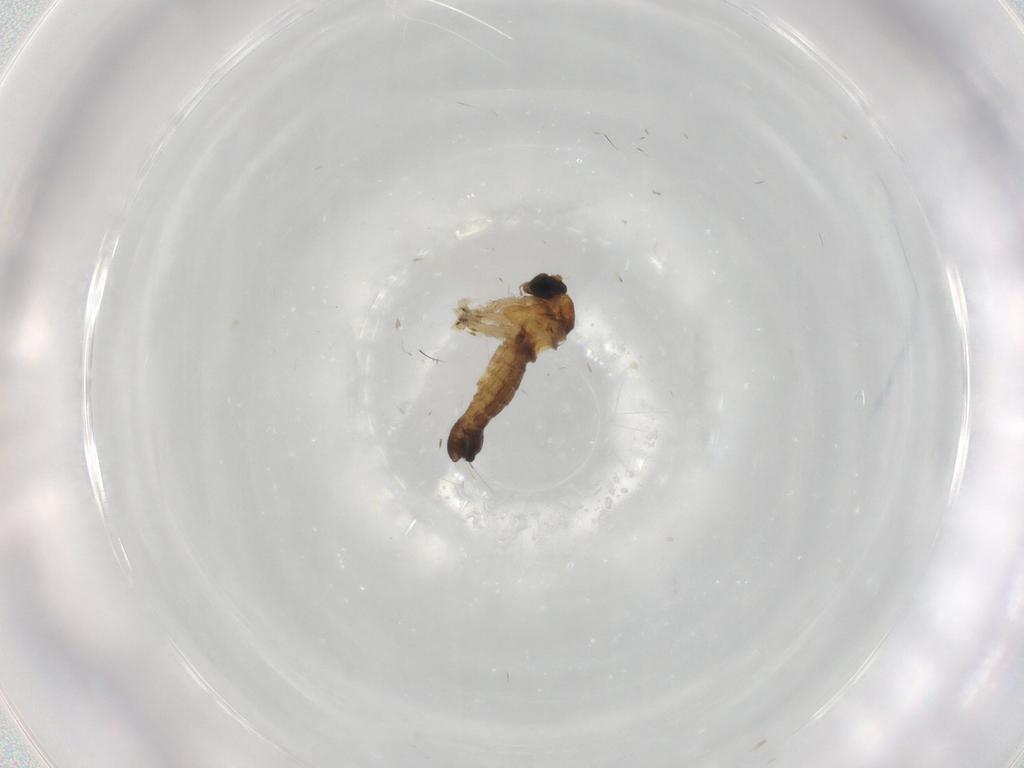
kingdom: Animalia
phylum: Arthropoda
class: Insecta
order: Diptera
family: Sciaridae
